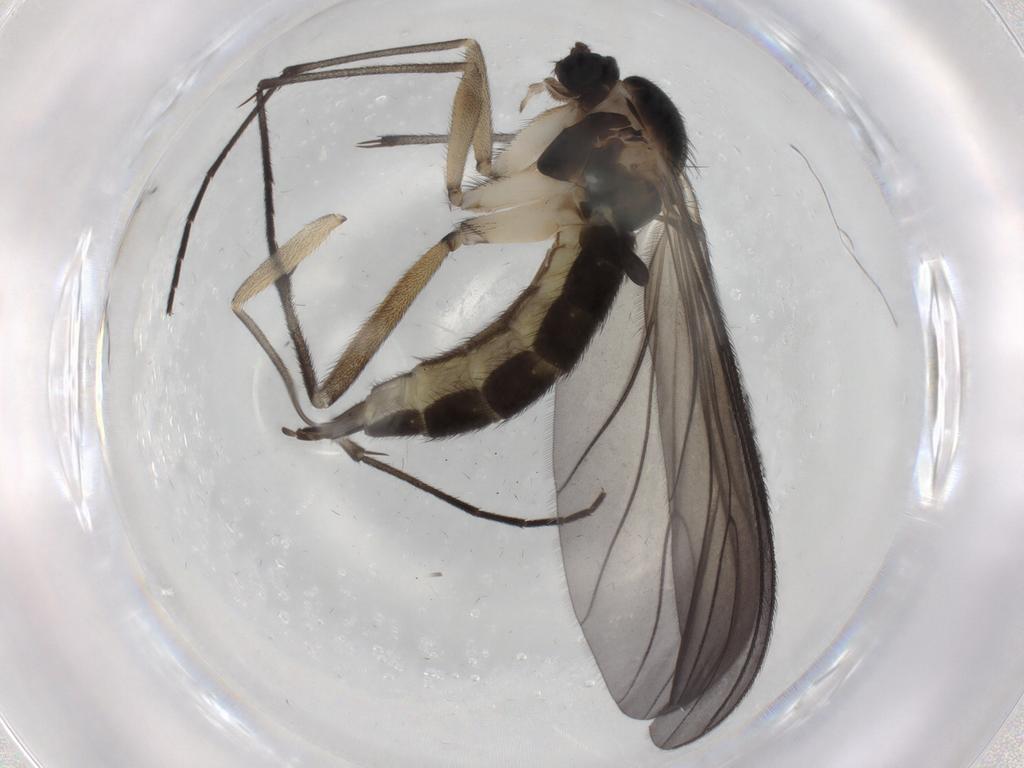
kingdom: Animalia
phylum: Arthropoda
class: Insecta
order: Diptera
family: Sciaridae
